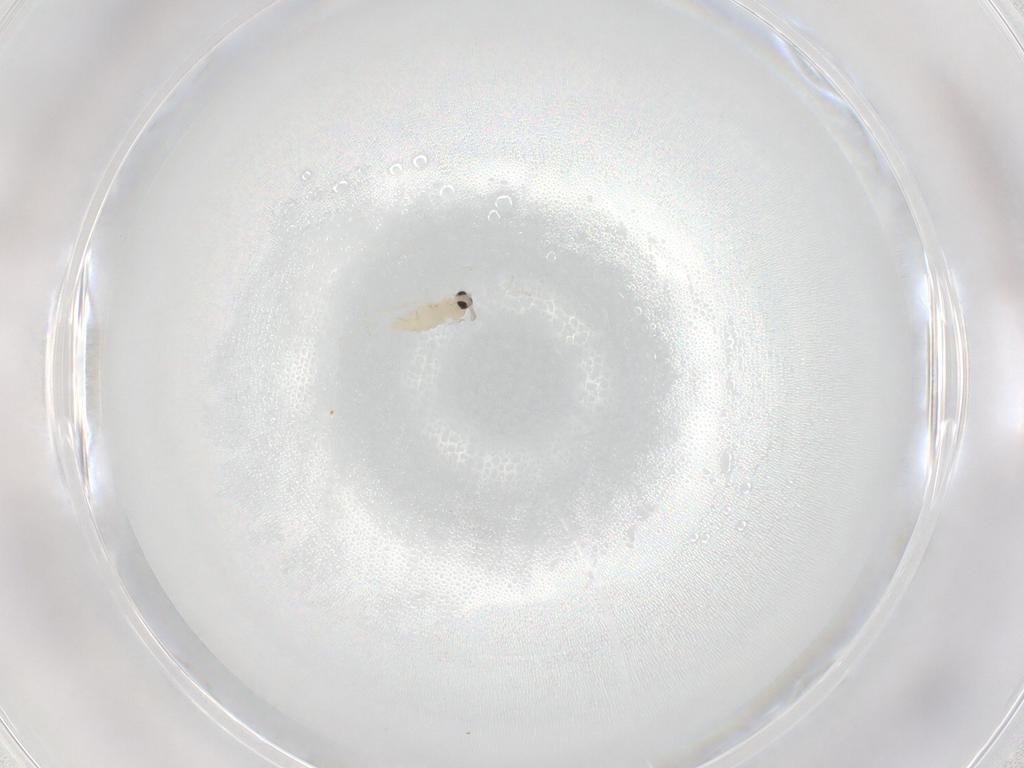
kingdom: Animalia
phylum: Arthropoda
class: Insecta
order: Diptera
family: Cecidomyiidae
